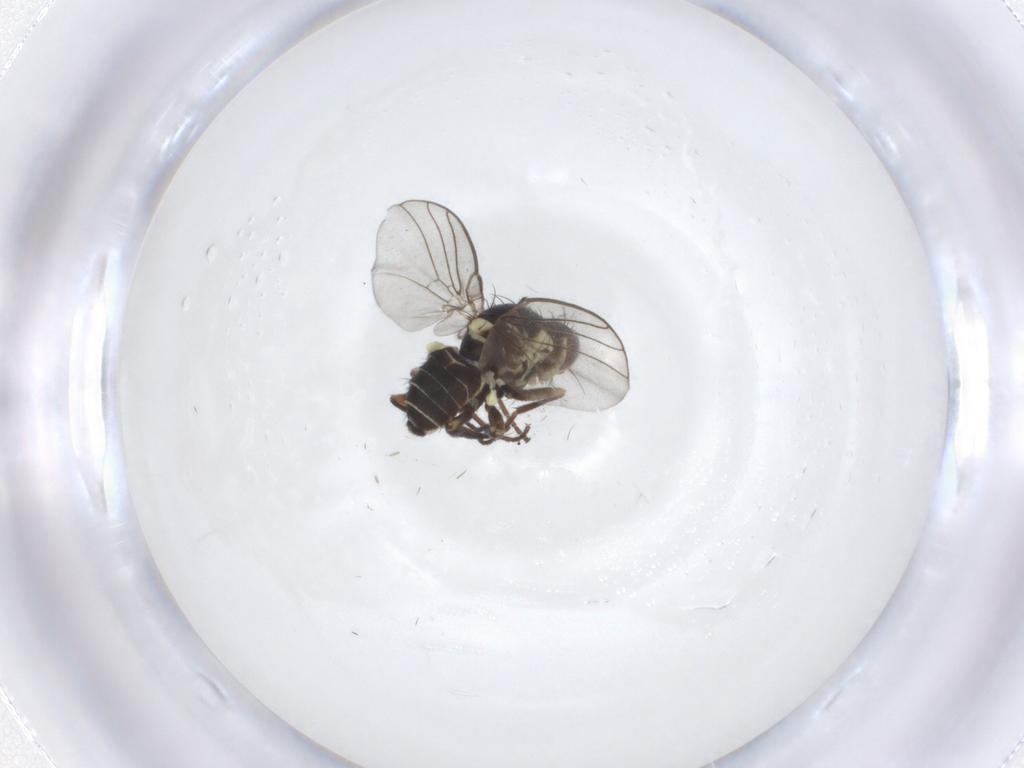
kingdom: Animalia
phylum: Arthropoda
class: Insecta
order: Diptera
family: Agromyzidae
